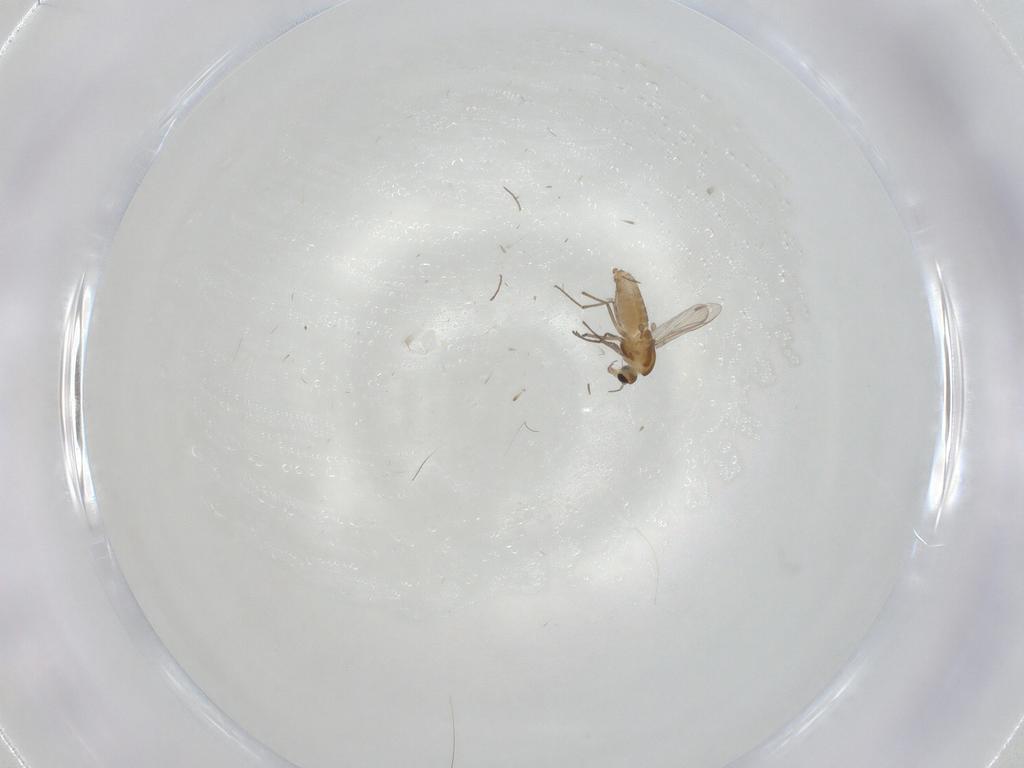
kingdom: Animalia
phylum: Arthropoda
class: Insecta
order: Diptera
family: Chironomidae
